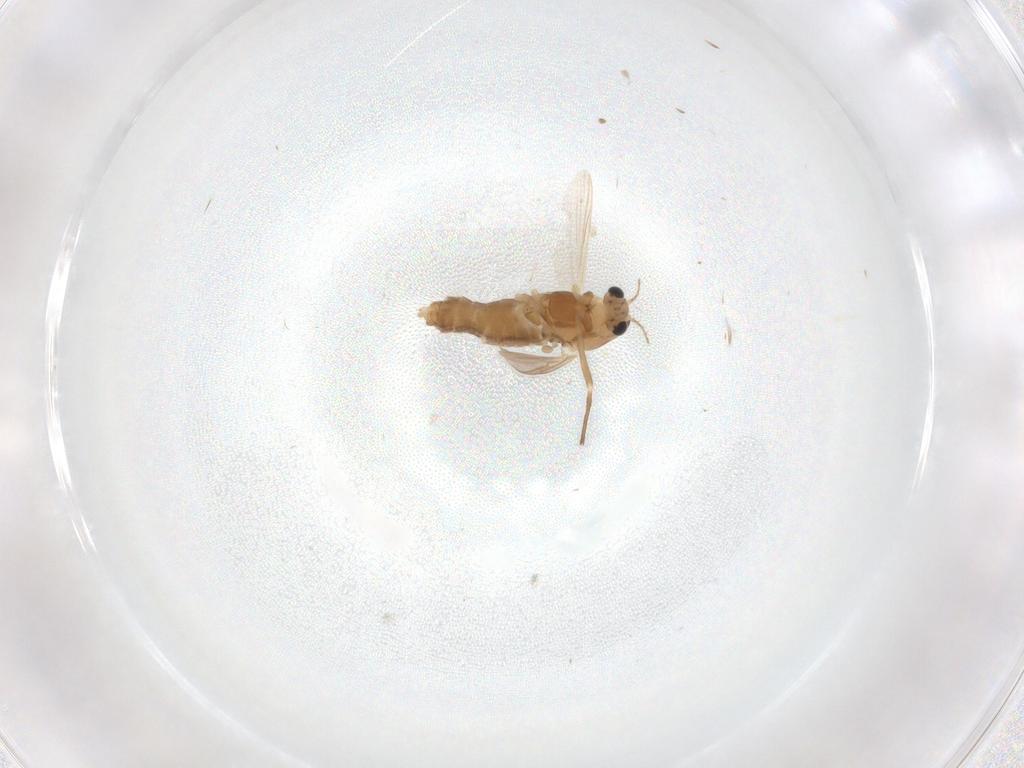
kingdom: Animalia
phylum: Arthropoda
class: Insecta
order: Diptera
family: Chironomidae
